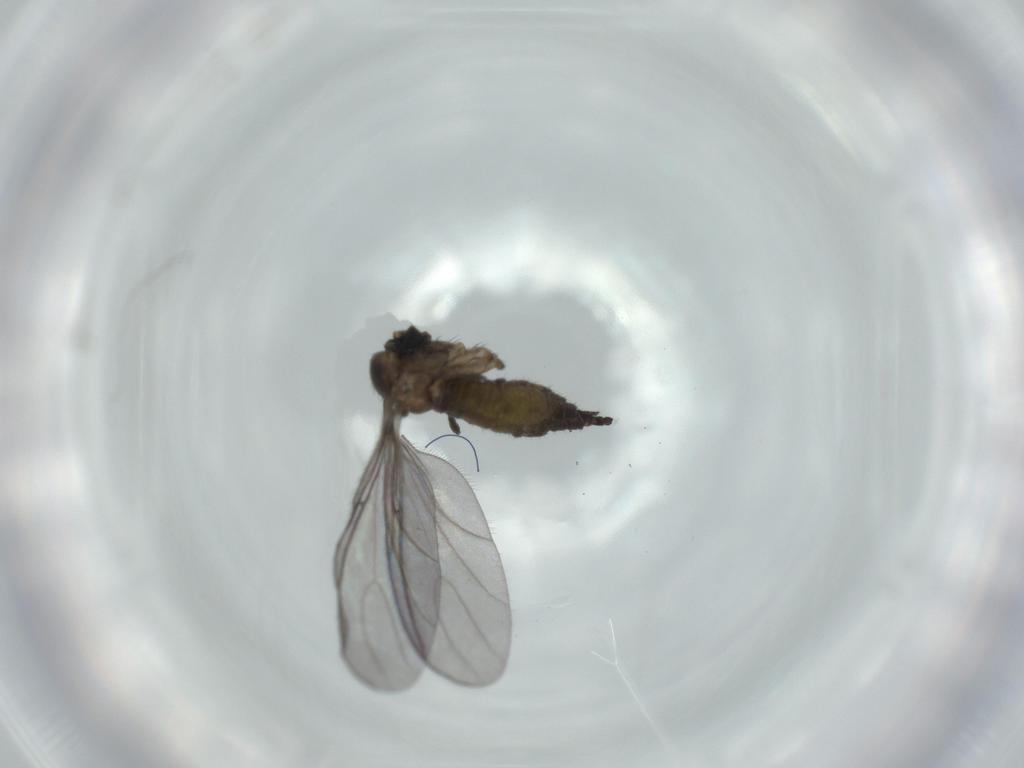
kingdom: Animalia
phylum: Arthropoda
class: Insecta
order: Diptera
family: Sciaridae
